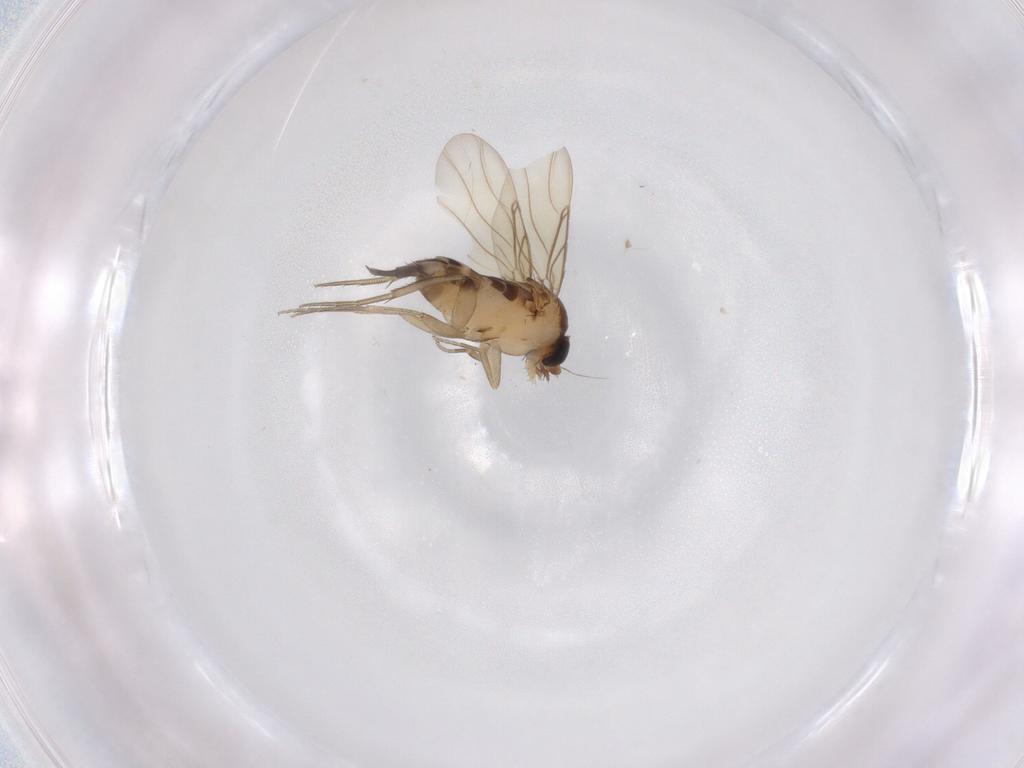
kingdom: Animalia
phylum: Arthropoda
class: Insecta
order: Diptera
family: Phoridae
